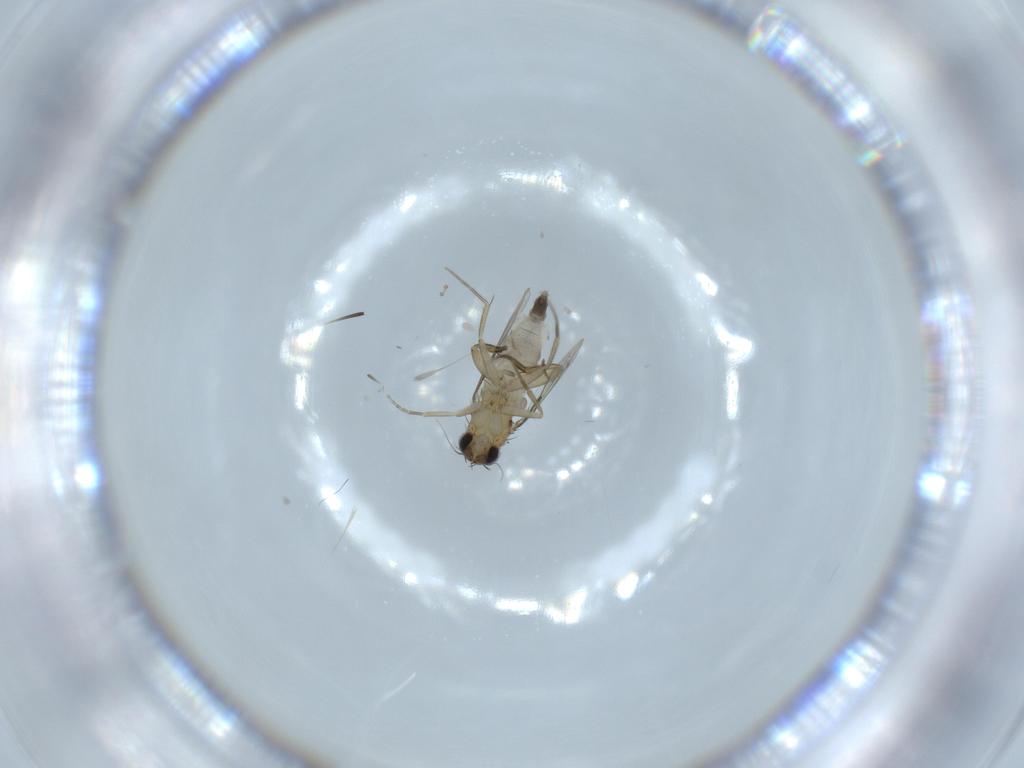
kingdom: Animalia
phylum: Arthropoda
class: Insecta
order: Diptera
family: Phoridae
